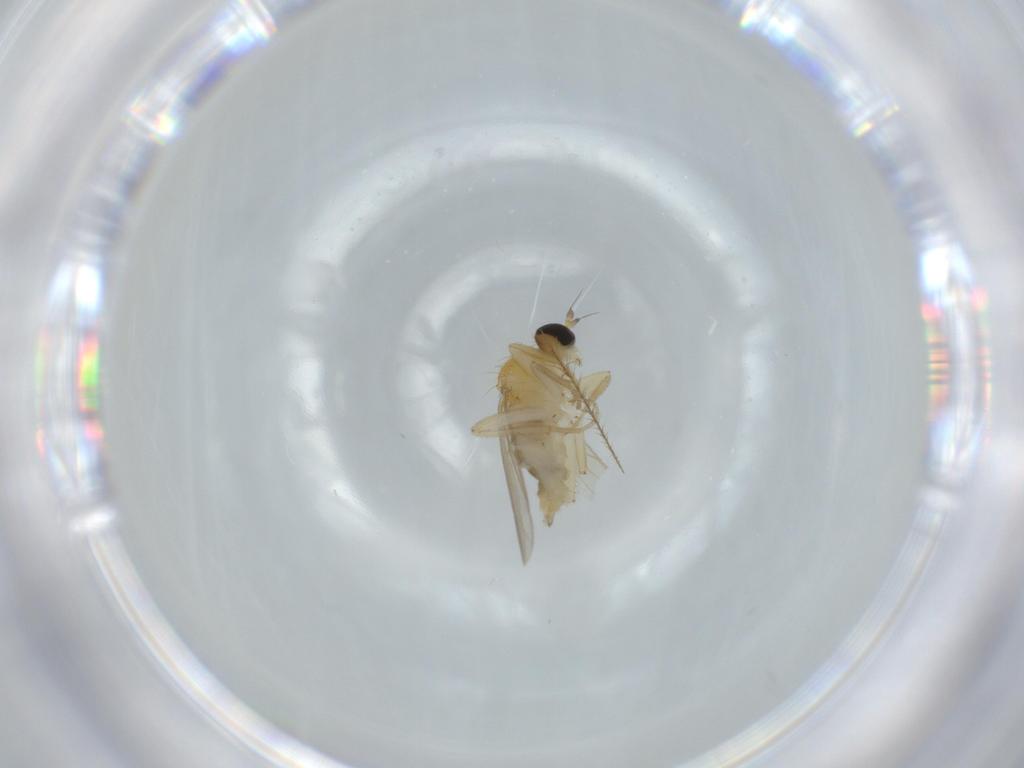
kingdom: Animalia
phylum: Arthropoda
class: Insecta
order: Diptera
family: Hybotidae
